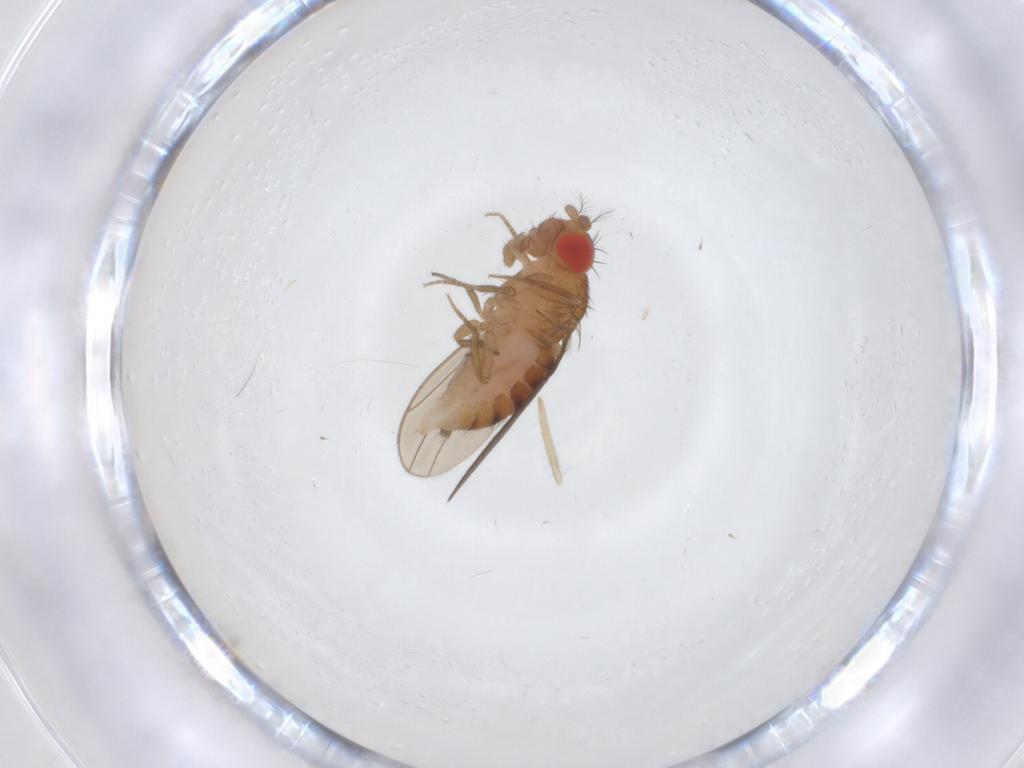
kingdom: Animalia
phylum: Arthropoda
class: Insecta
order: Diptera
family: Drosophilidae
